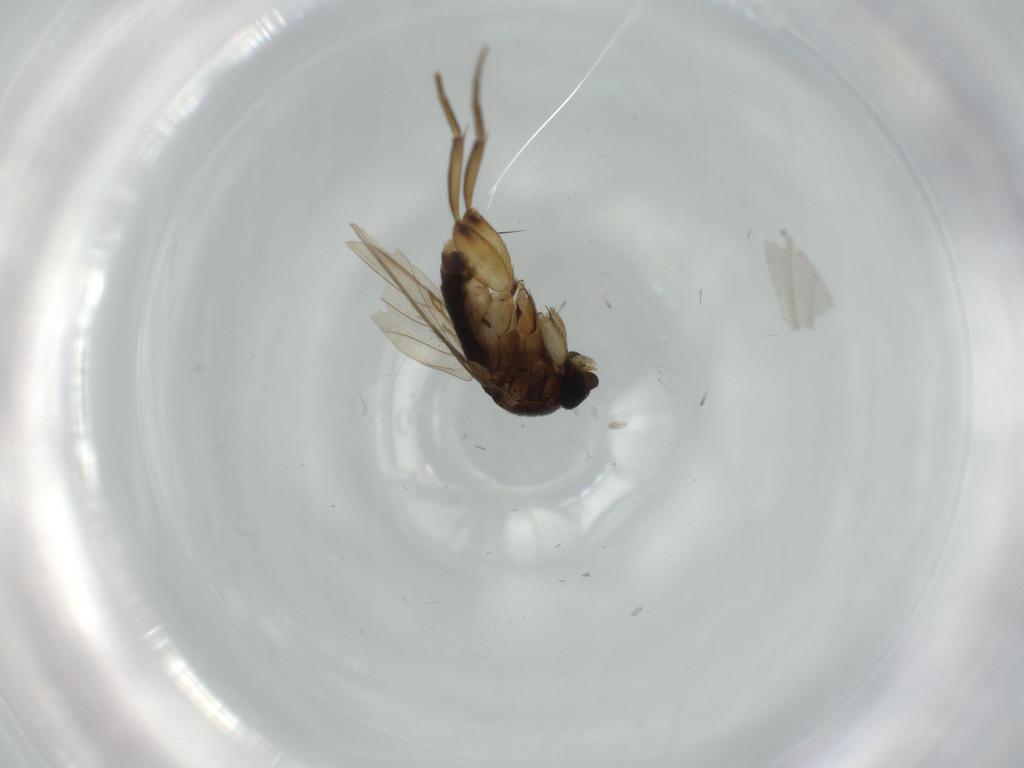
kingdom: Animalia
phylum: Arthropoda
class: Insecta
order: Diptera
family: Phoridae
